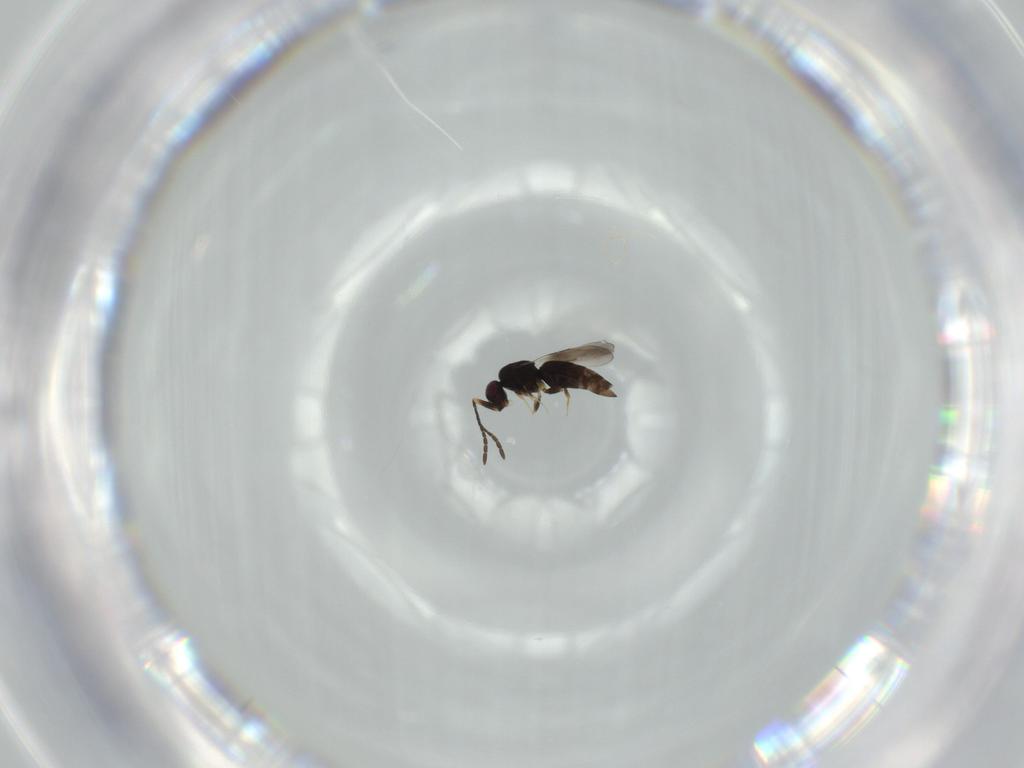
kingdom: Animalia
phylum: Arthropoda
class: Insecta
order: Hymenoptera
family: Ceraphronidae
